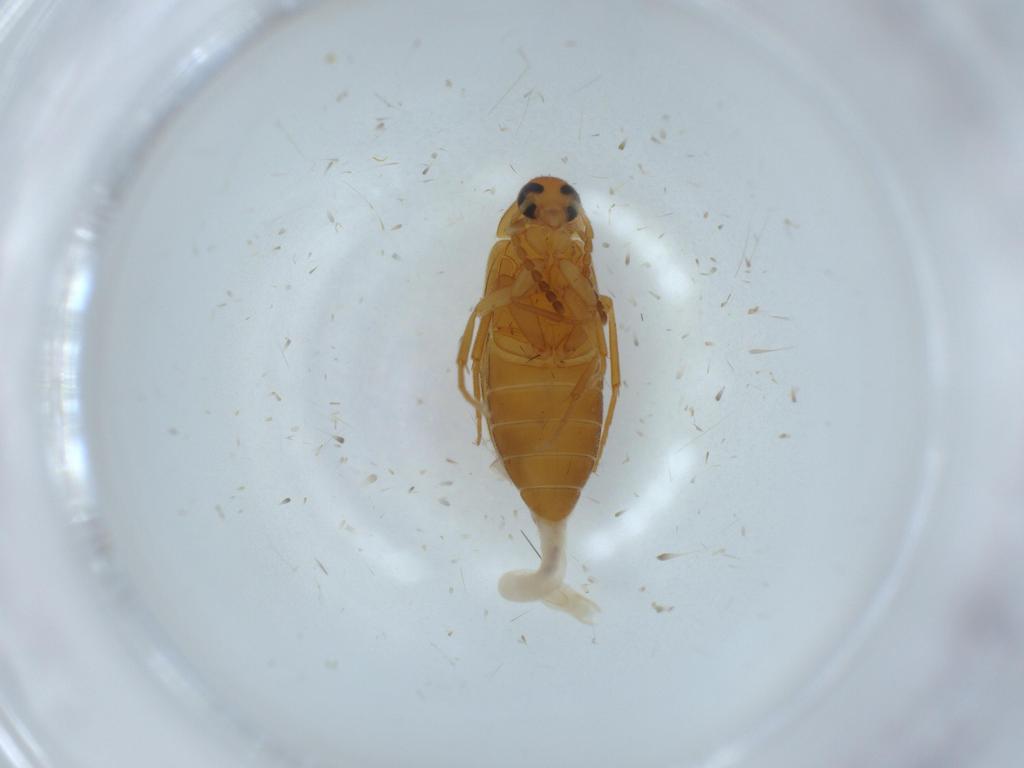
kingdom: Animalia
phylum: Arthropoda
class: Insecta
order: Coleoptera
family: Scraptiidae
